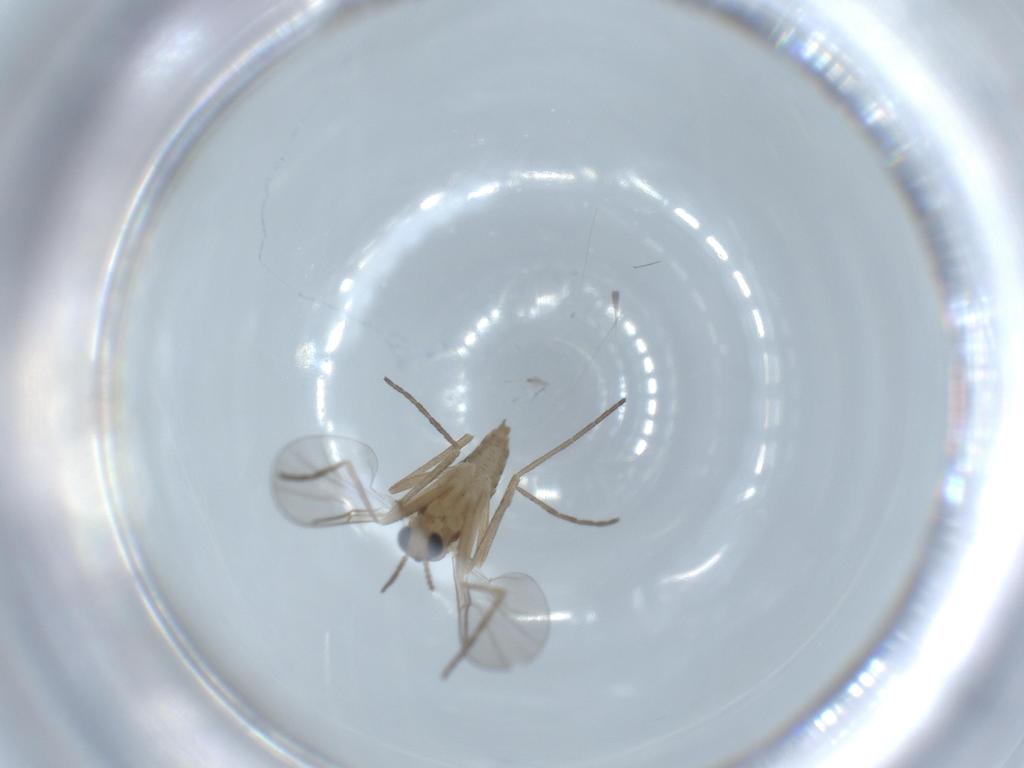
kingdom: Animalia
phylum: Arthropoda
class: Insecta
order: Diptera
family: Cecidomyiidae
